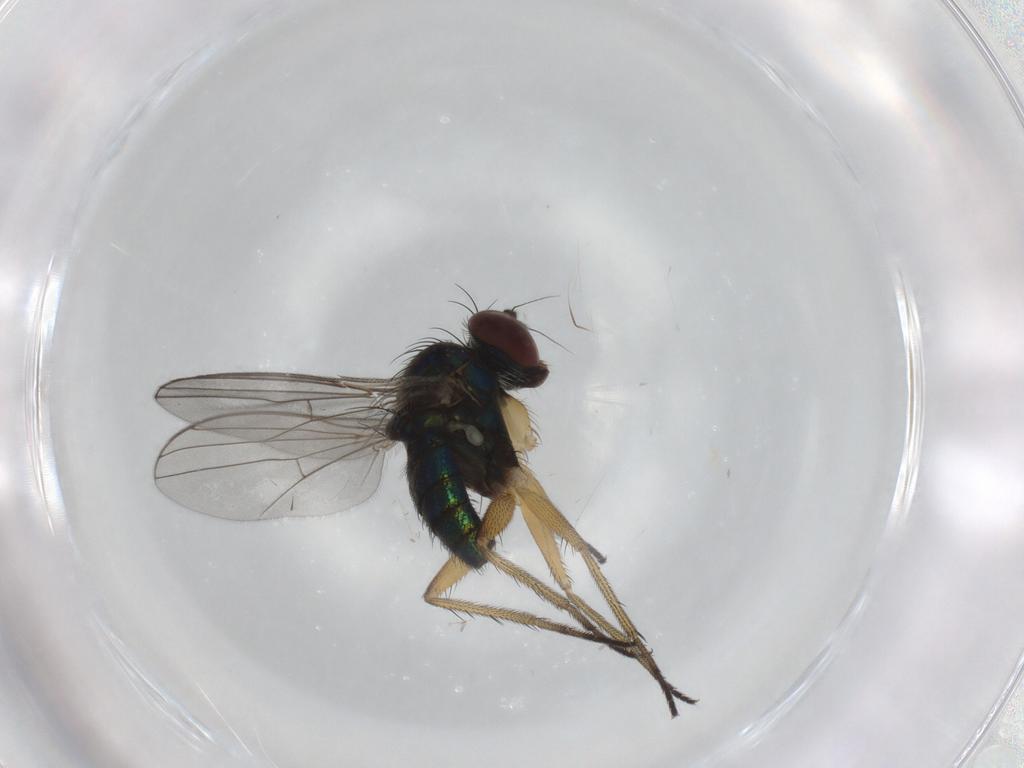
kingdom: Animalia
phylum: Arthropoda
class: Insecta
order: Diptera
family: Dolichopodidae
